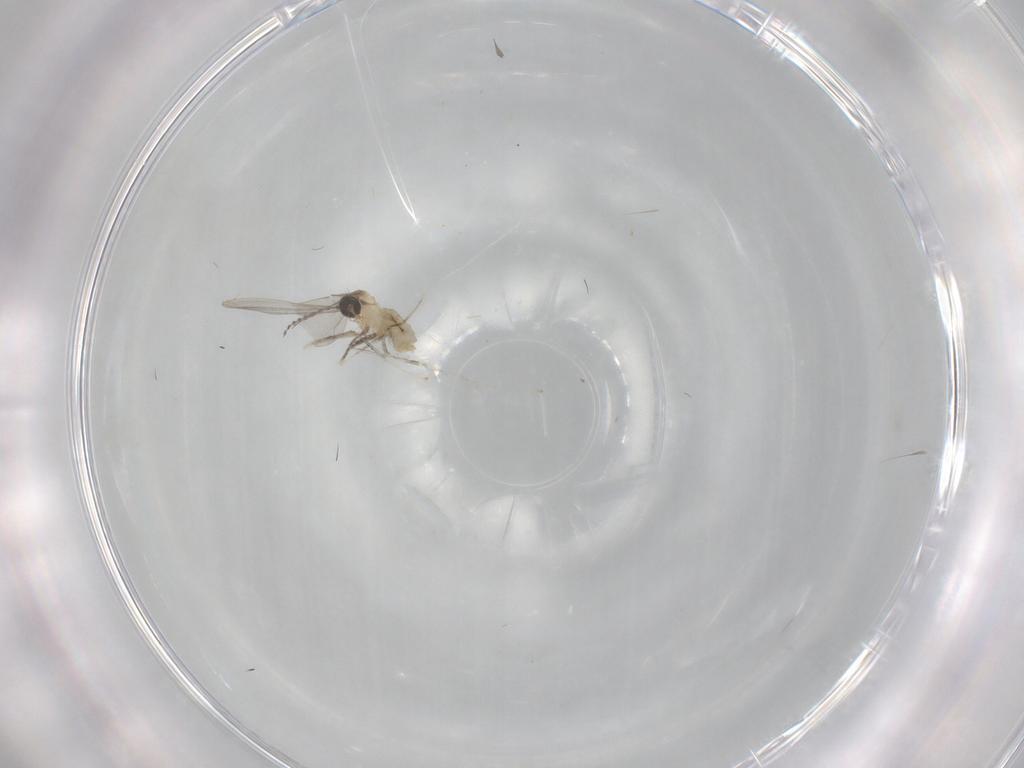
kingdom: Animalia
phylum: Arthropoda
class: Insecta
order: Diptera
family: Cecidomyiidae
